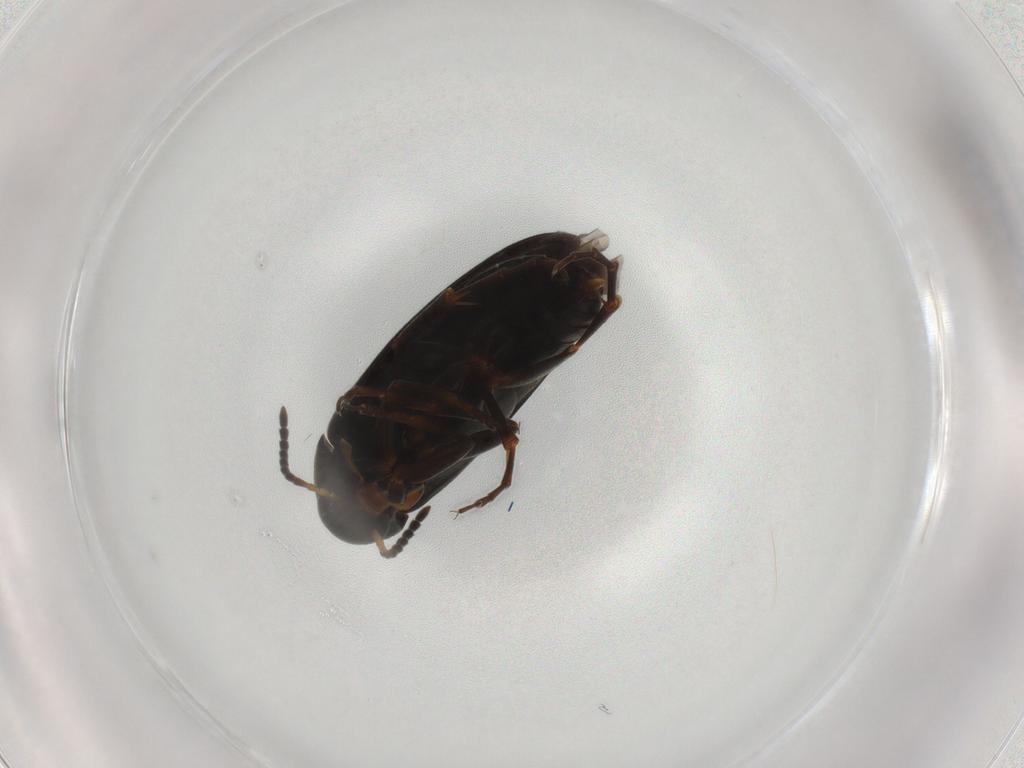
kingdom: Animalia
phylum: Arthropoda
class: Insecta
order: Coleoptera
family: Scraptiidae
